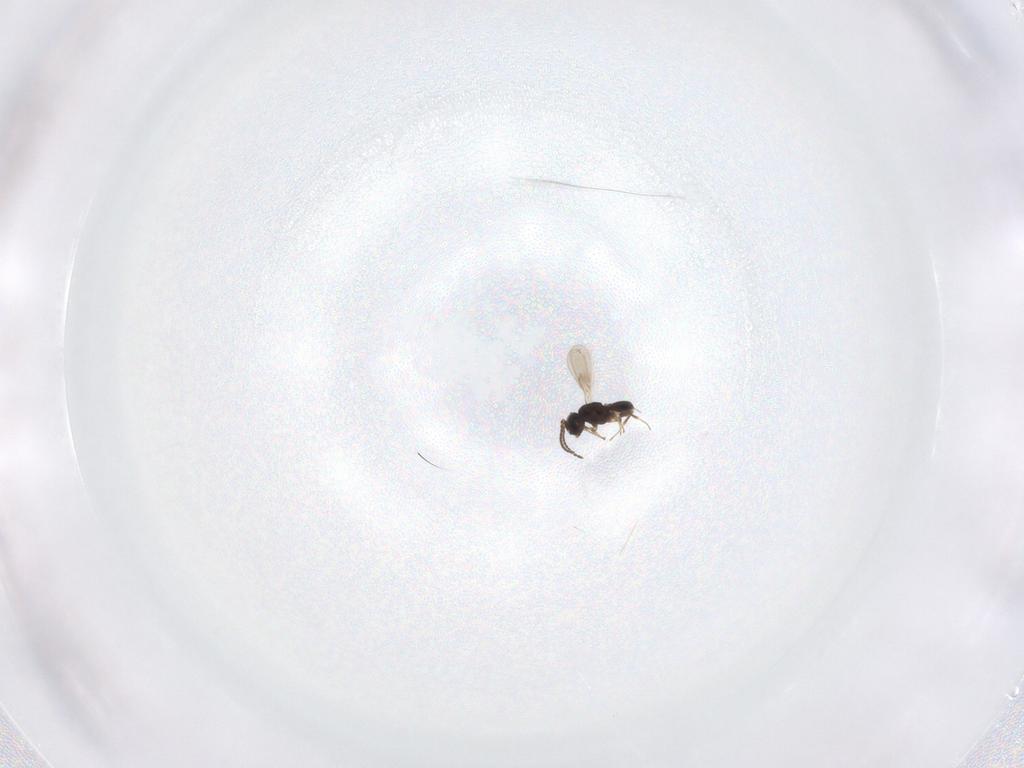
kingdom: Animalia
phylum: Arthropoda
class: Insecta
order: Hymenoptera
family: Scelionidae
